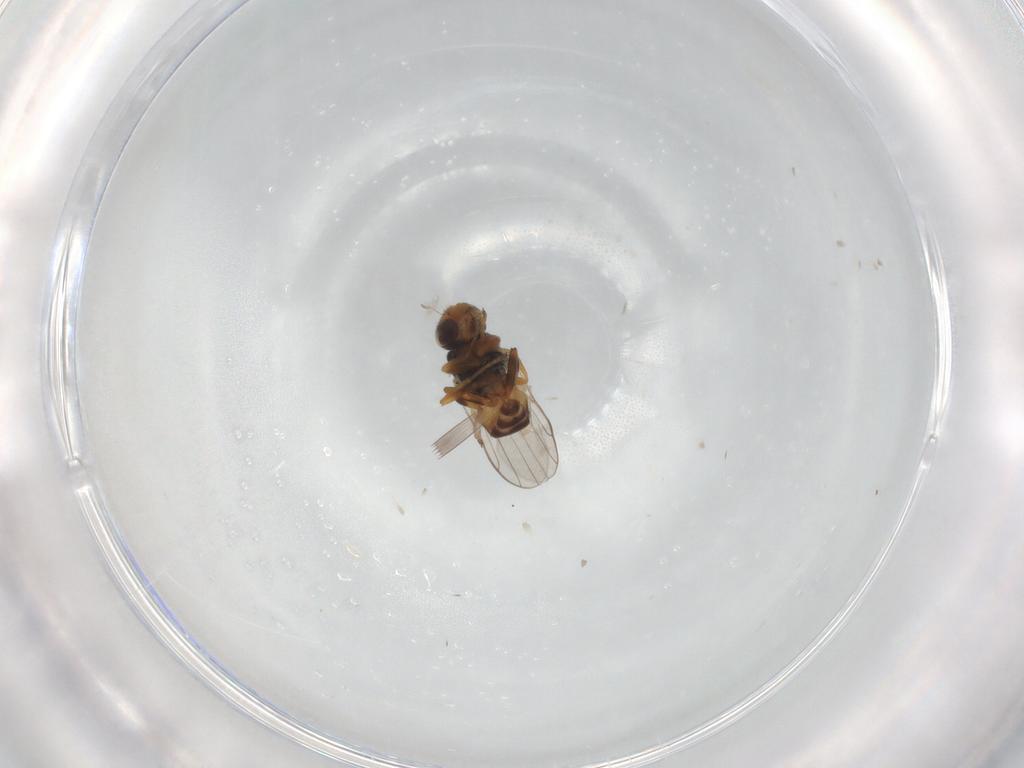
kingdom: Animalia
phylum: Arthropoda
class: Insecta
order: Diptera
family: Chloropidae
